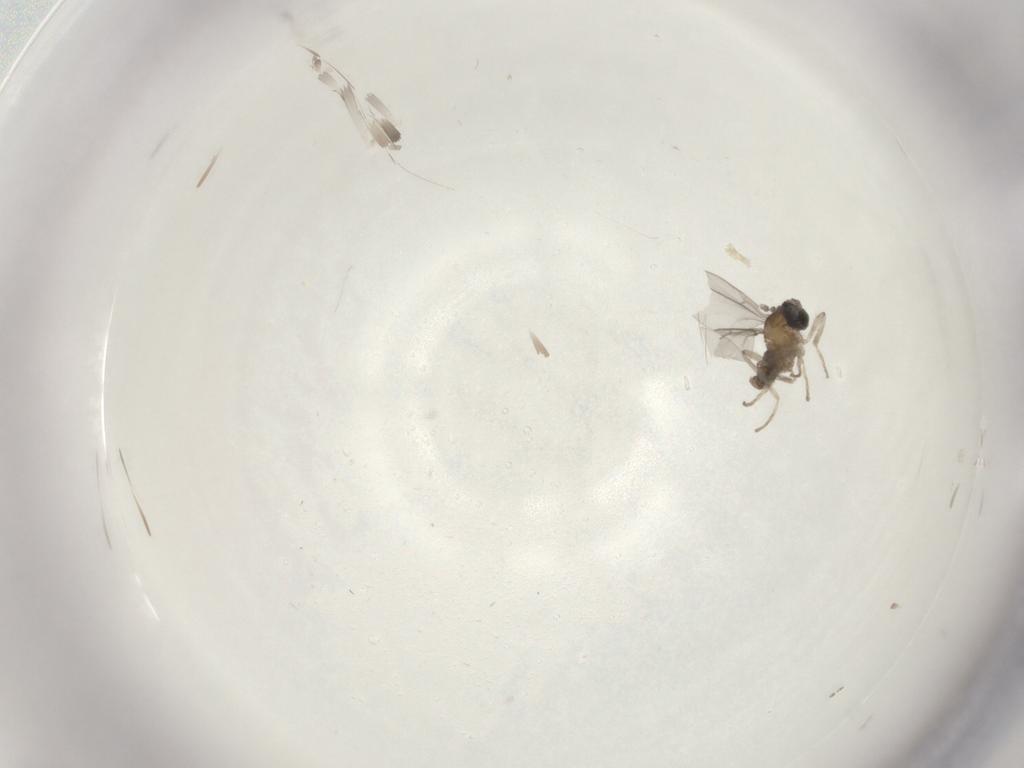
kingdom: Animalia
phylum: Arthropoda
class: Insecta
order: Diptera
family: Cecidomyiidae
